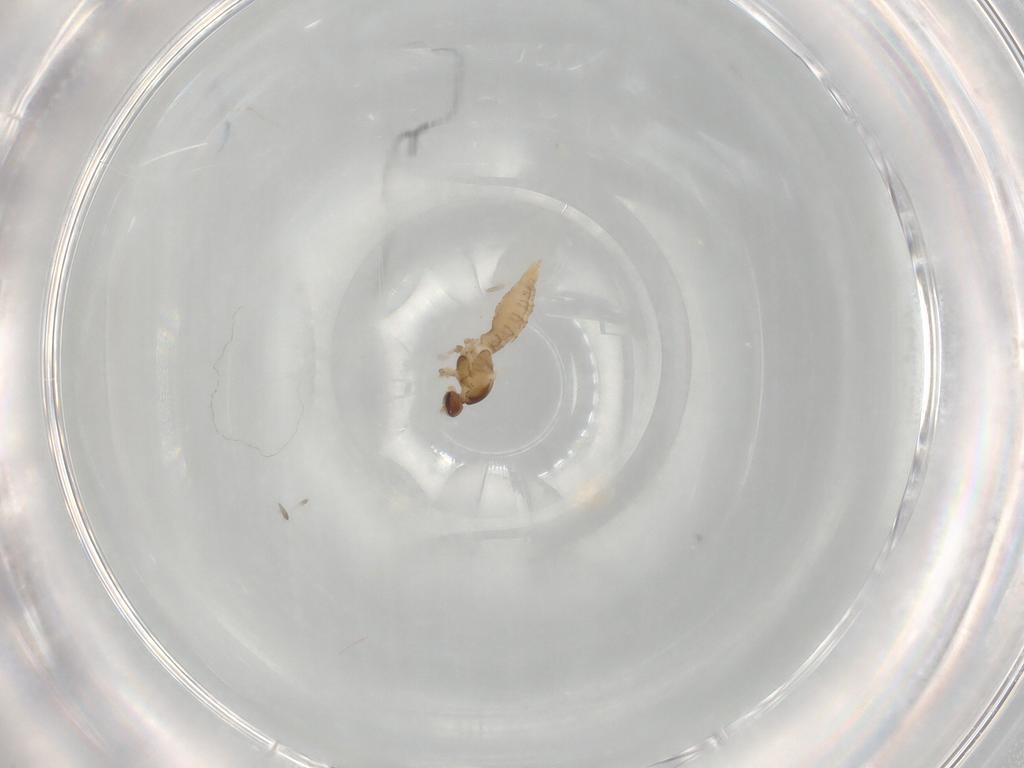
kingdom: Animalia
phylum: Arthropoda
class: Insecta
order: Diptera
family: Cecidomyiidae
